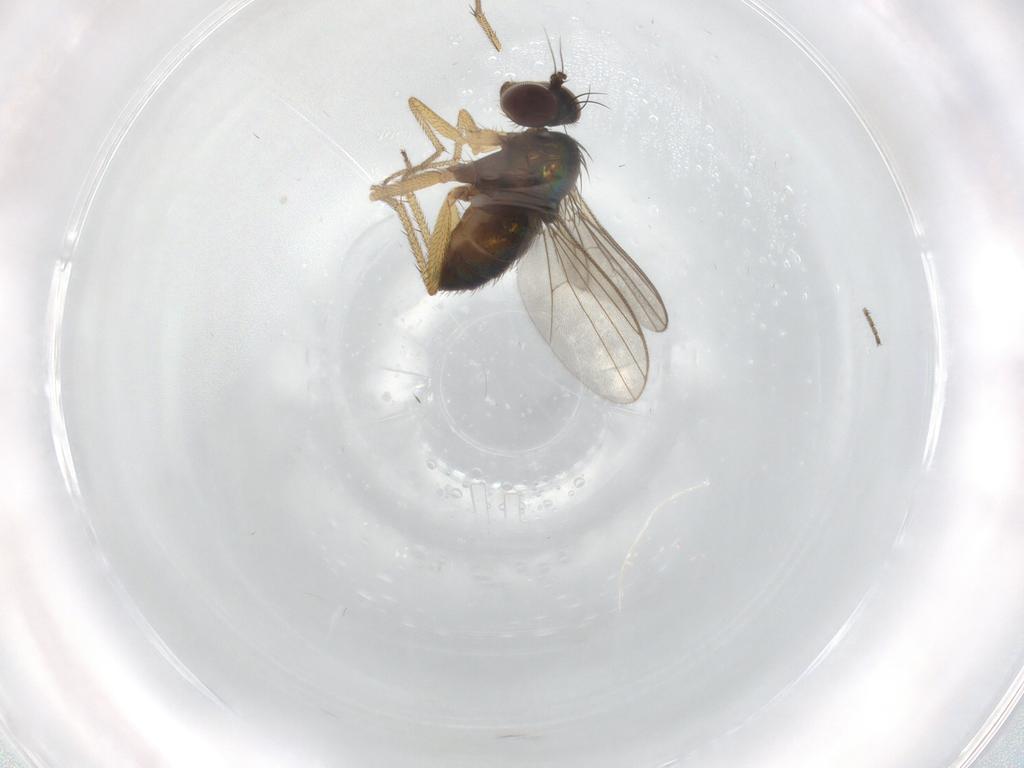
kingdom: Animalia
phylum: Arthropoda
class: Insecta
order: Diptera
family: Dolichopodidae
